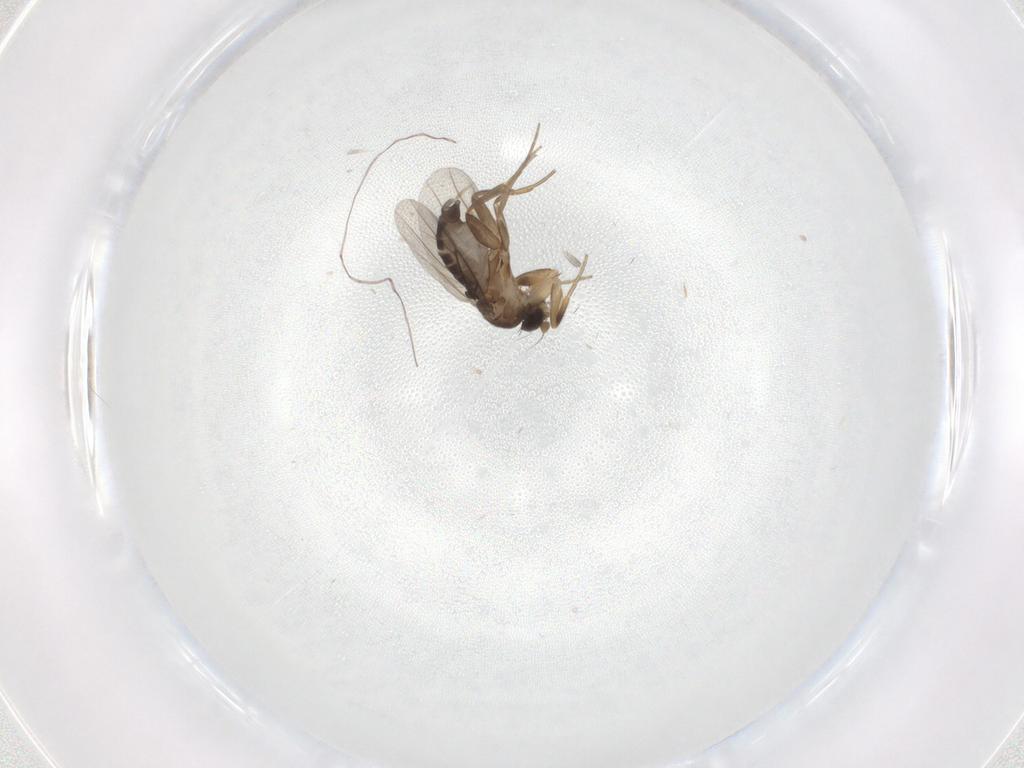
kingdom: Animalia
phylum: Arthropoda
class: Insecta
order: Diptera
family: Phoridae
